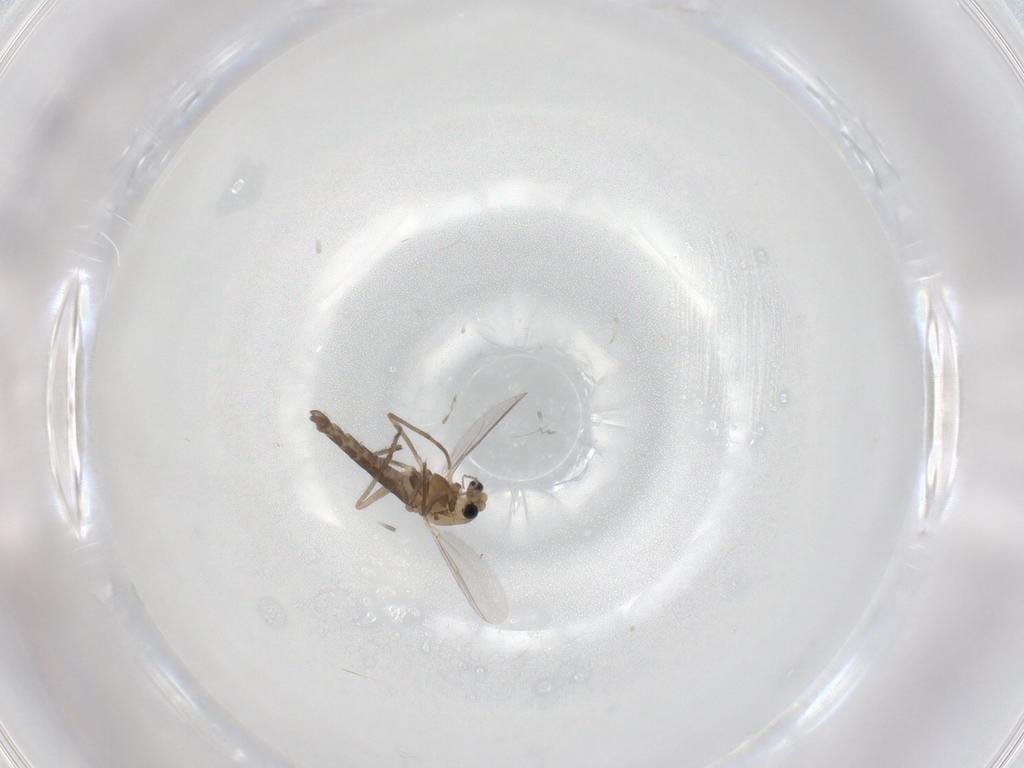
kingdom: Animalia
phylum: Arthropoda
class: Insecta
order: Diptera
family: Chironomidae
